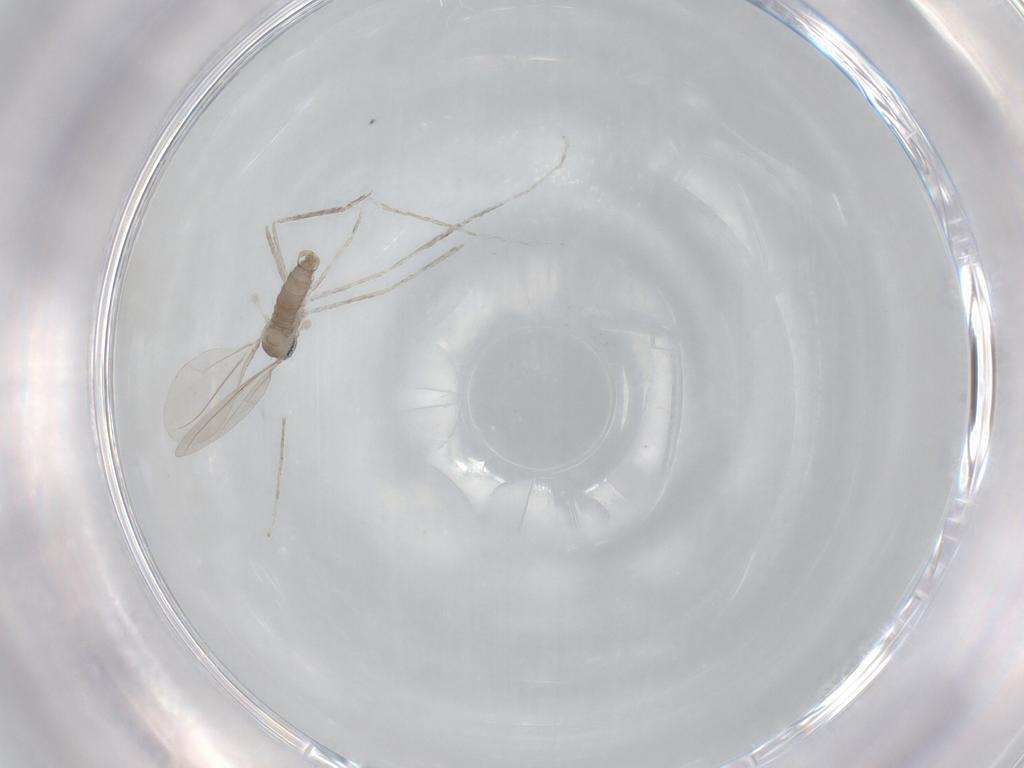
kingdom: Animalia
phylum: Arthropoda
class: Insecta
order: Diptera
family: Cecidomyiidae
